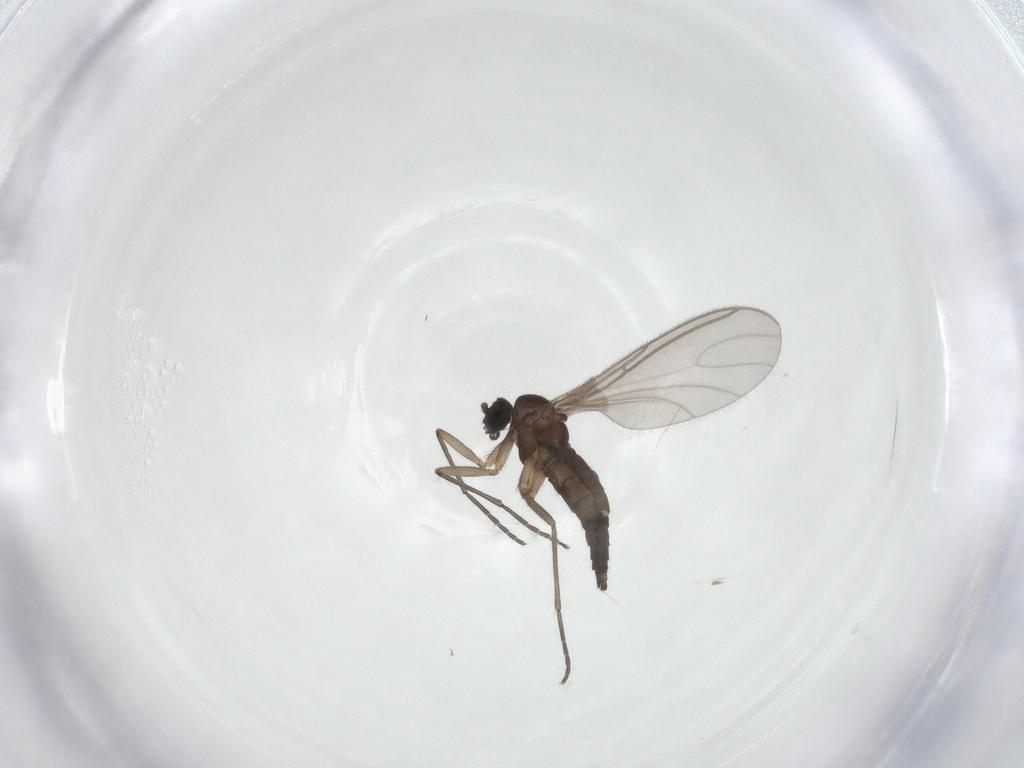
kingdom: Animalia
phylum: Arthropoda
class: Insecta
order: Diptera
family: Sciaridae
